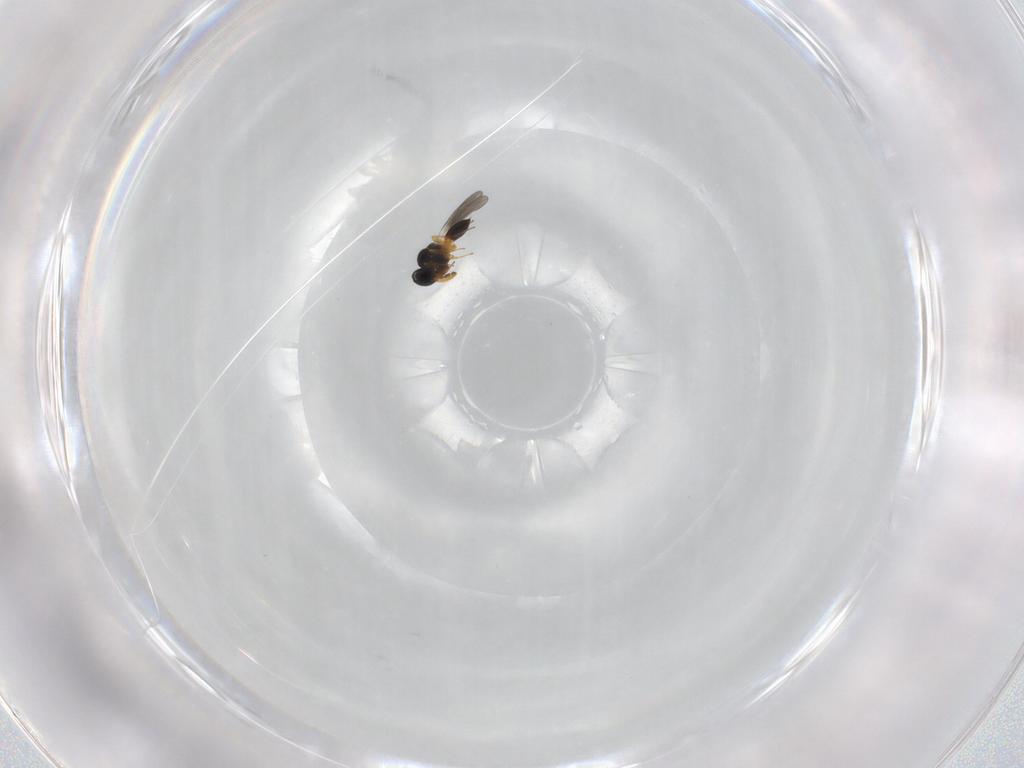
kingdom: Animalia
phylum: Arthropoda
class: Insecta
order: Hymenoptera
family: Platygastridae
